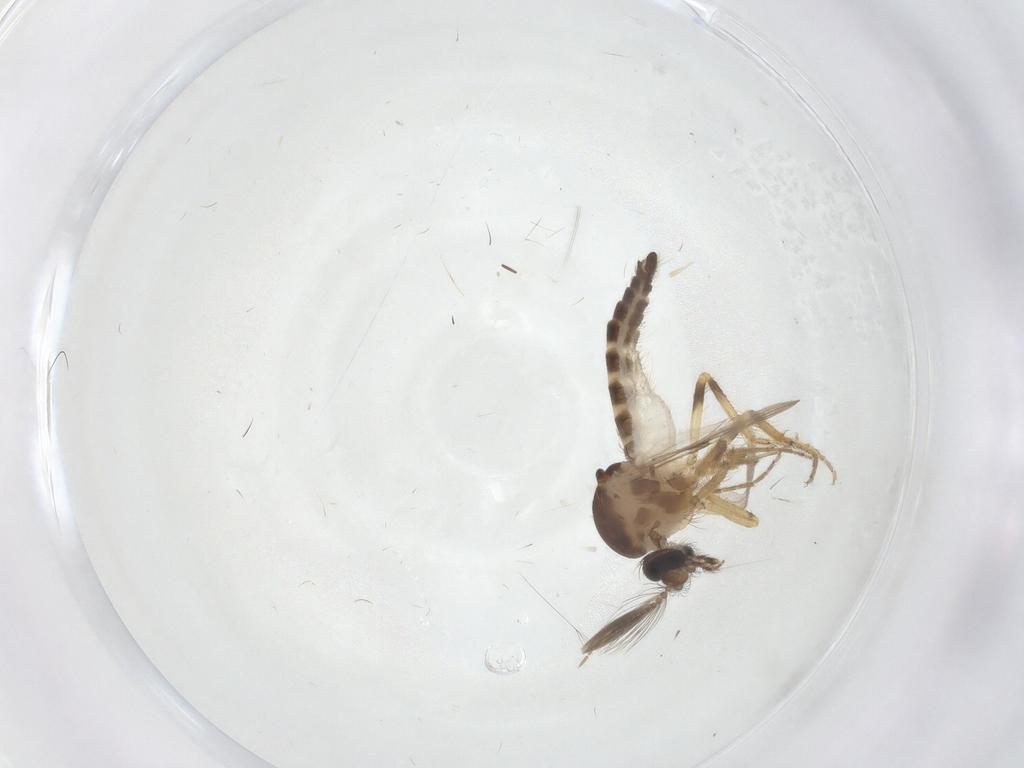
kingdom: Animalia
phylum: Arthropoda
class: Insecta
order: Diptera
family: Ceratopogonidae
